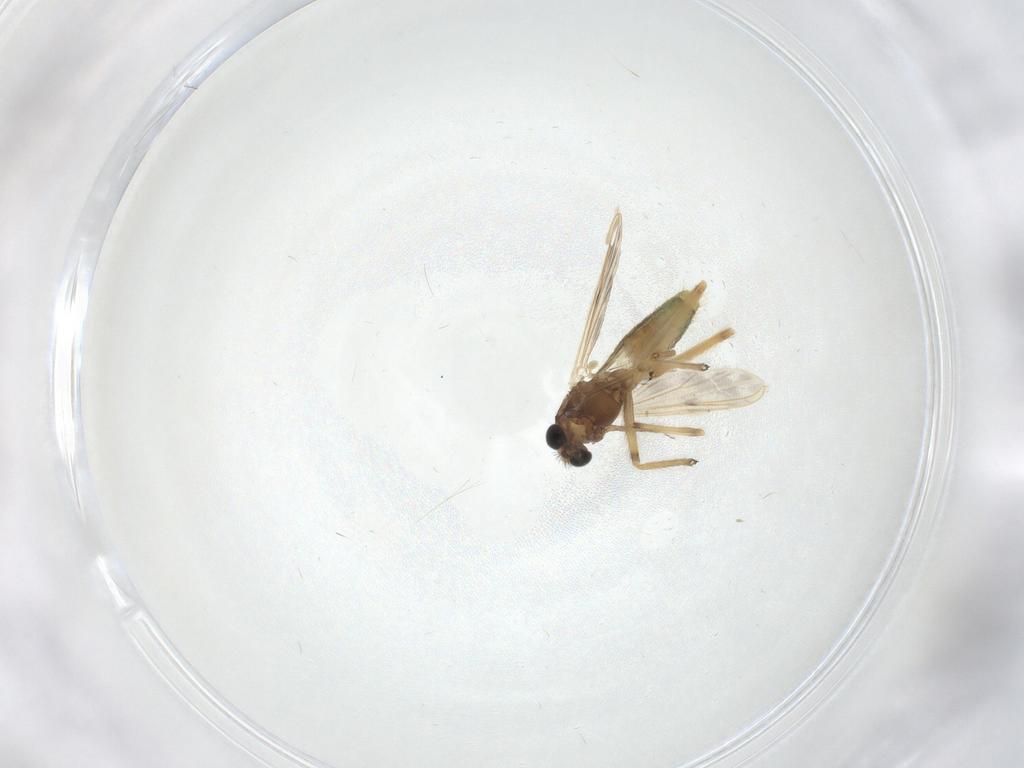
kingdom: Animalia
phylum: Arthropoda
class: Insecta
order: Diptera
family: Chironomidae
